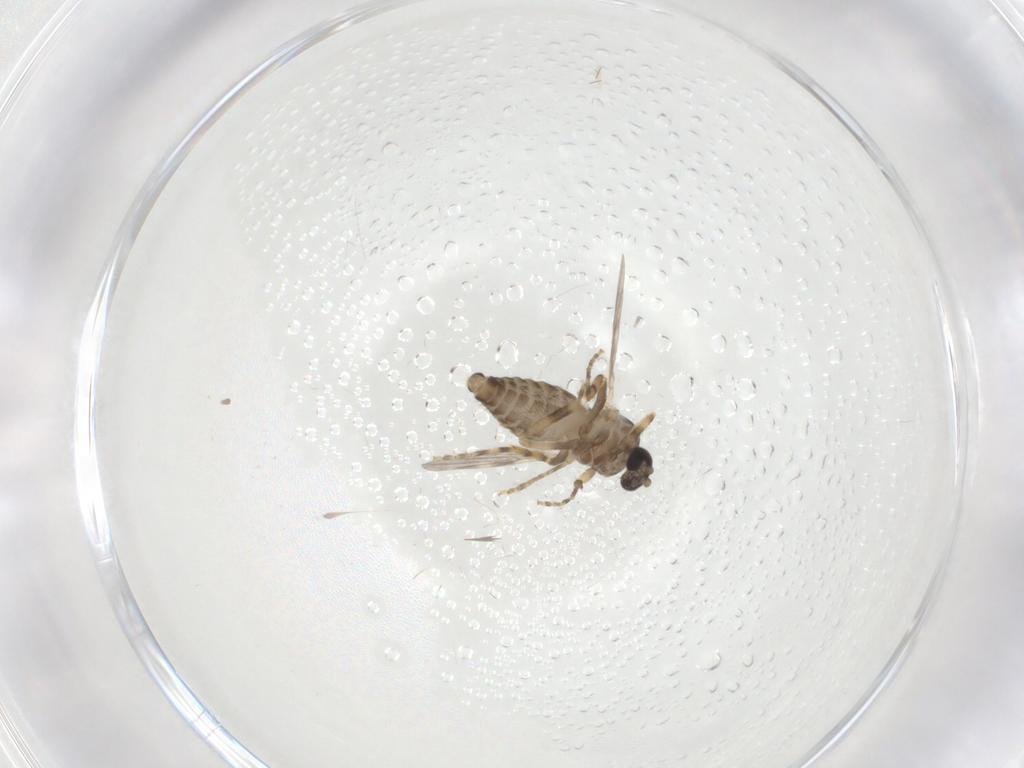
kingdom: Animalia
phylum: Arthropoda
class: Insecta
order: Diptera
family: Ceratopogonidae
